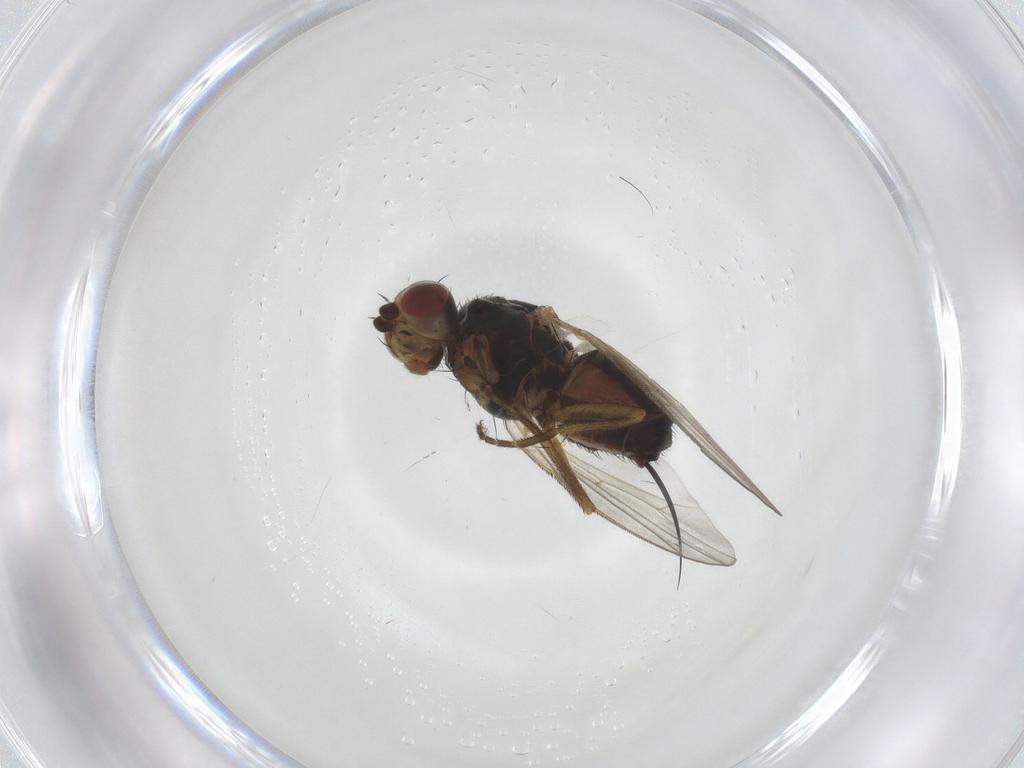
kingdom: Animalia
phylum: Arthropoda
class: Insecta
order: Diptera
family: Heleomyzidae
